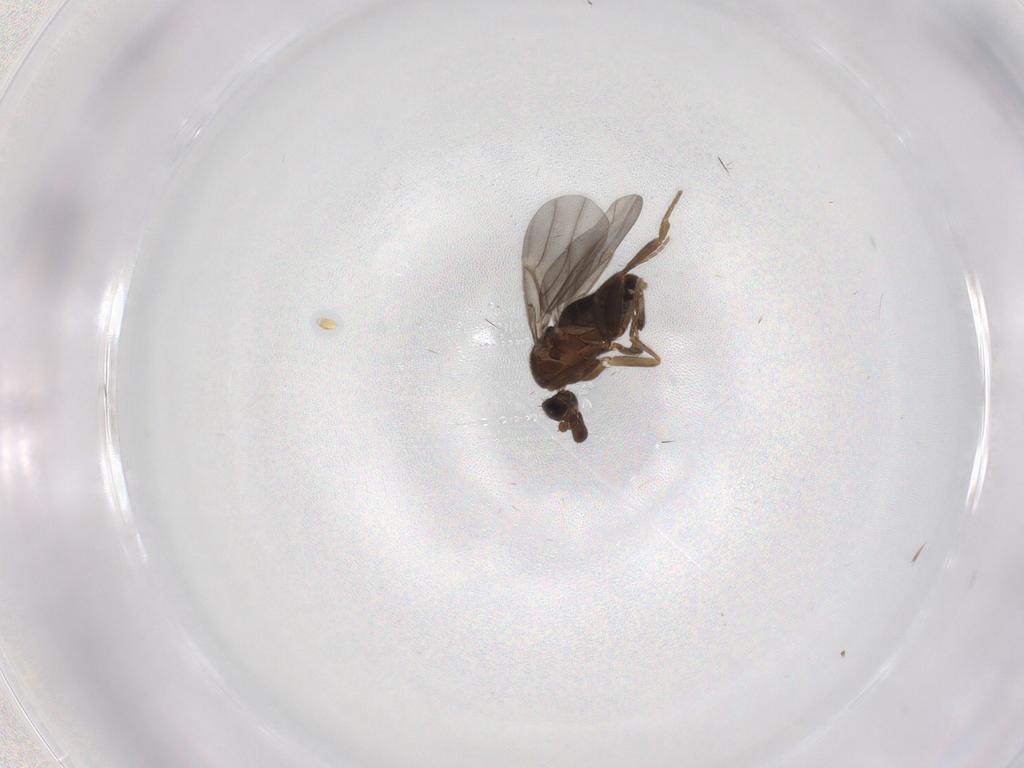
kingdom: Animalia
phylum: Arthropoda
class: Insecta
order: Diptera
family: Phoridae
